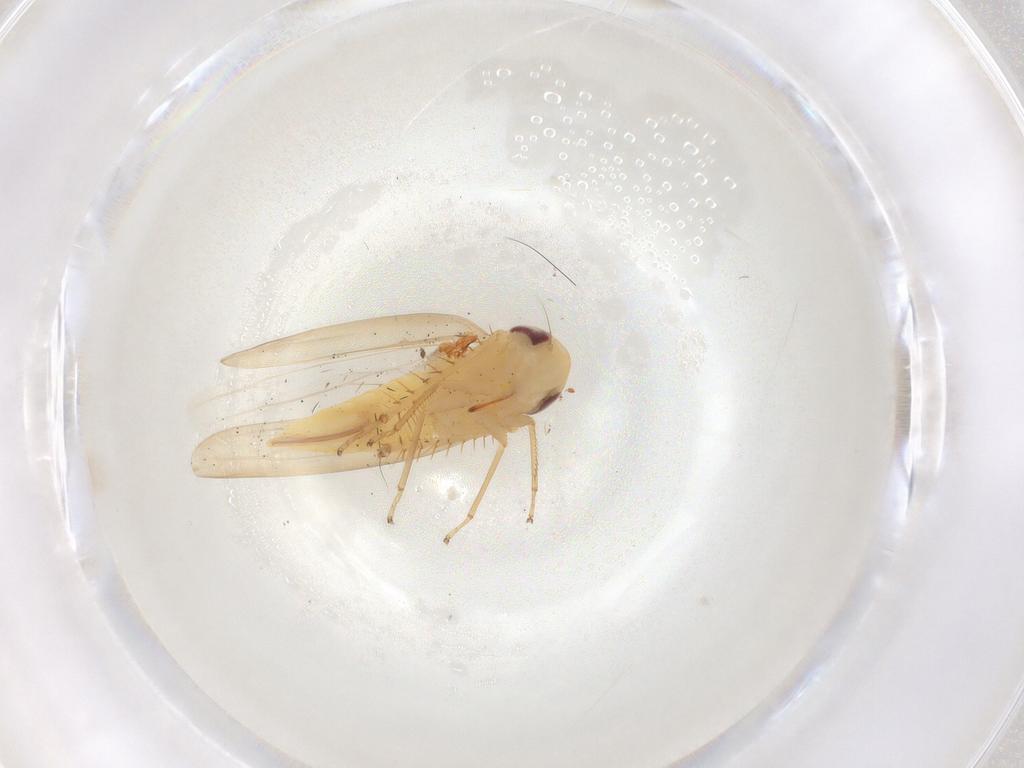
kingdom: Animalia
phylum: Arthropoda
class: Insecta
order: Hemiptera
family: Cicadellidae
